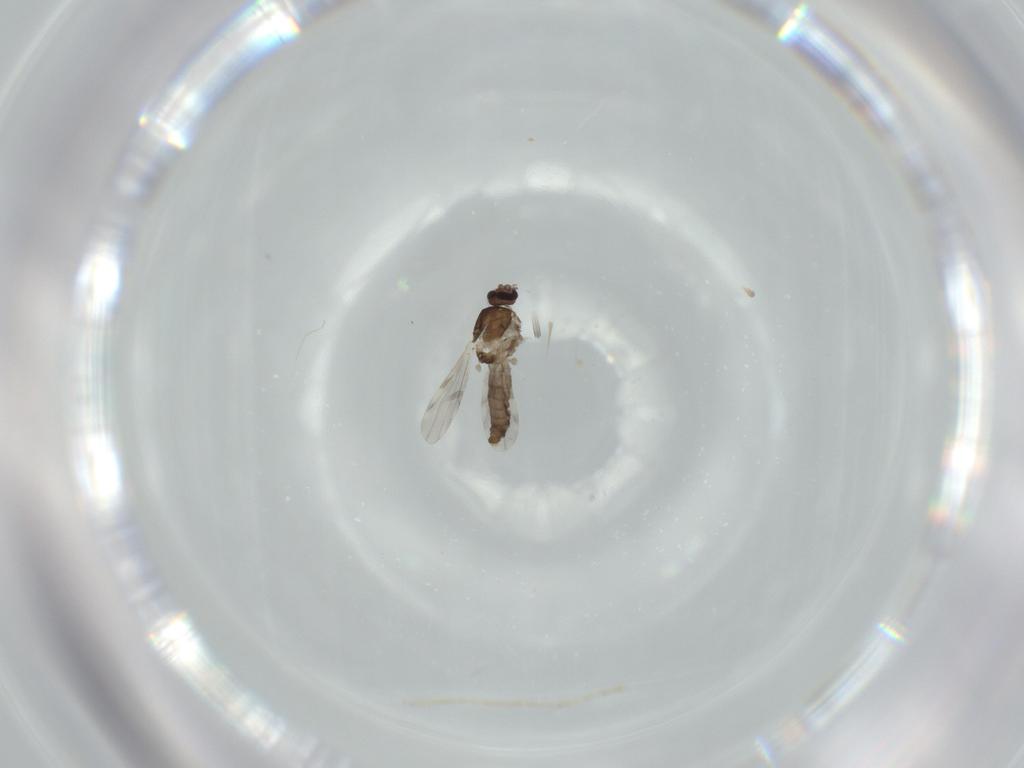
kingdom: Animalia
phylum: Arthropoda
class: Insecta
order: Diptera
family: Ceratopogonidae
